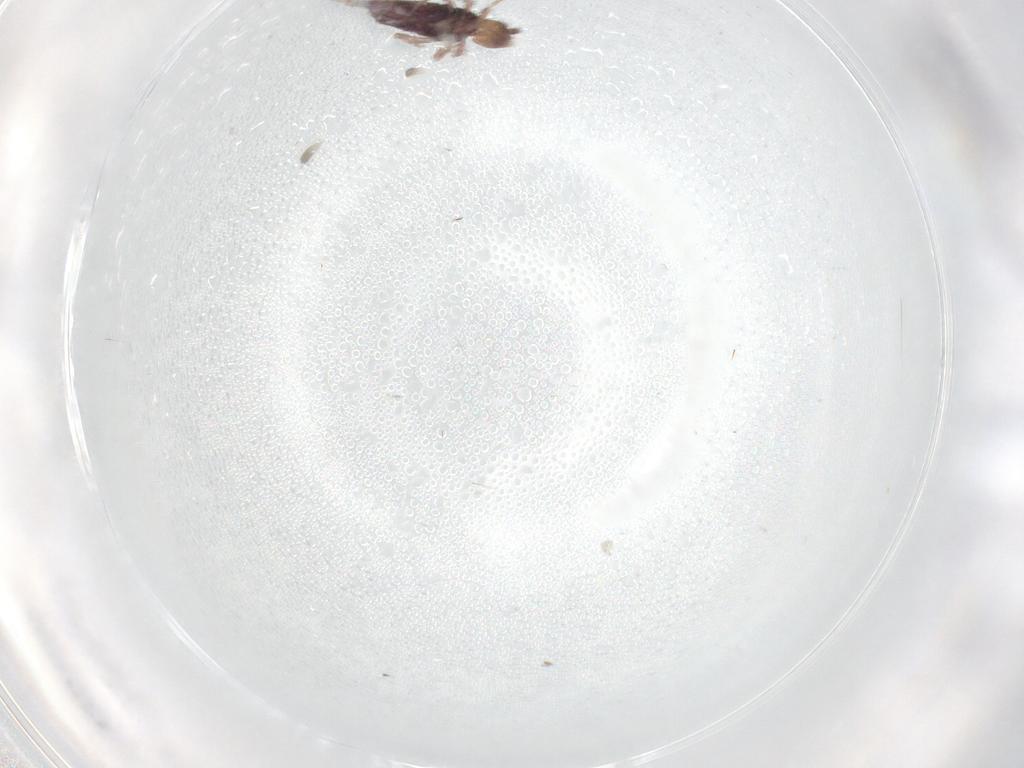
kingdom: Animalia
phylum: Arthropoda
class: Collembola
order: Entomobryomorpha
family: Entomobryidae
